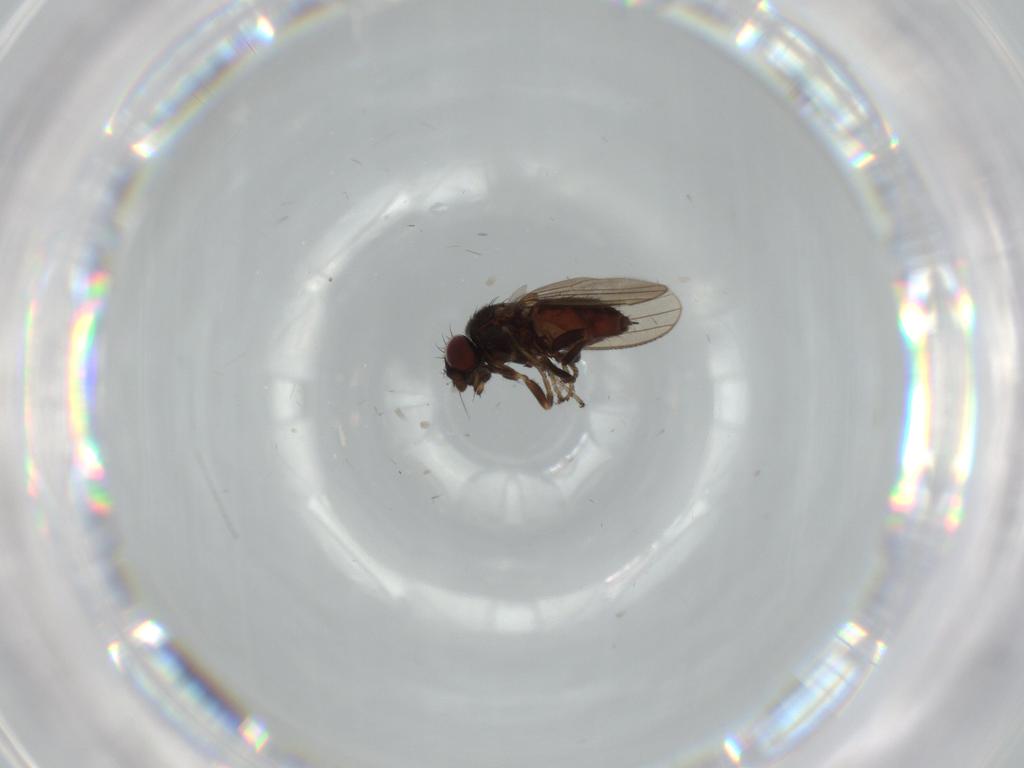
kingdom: Animalia
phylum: Arthropoda
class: Insecta
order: Diptera
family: Milichiidae
